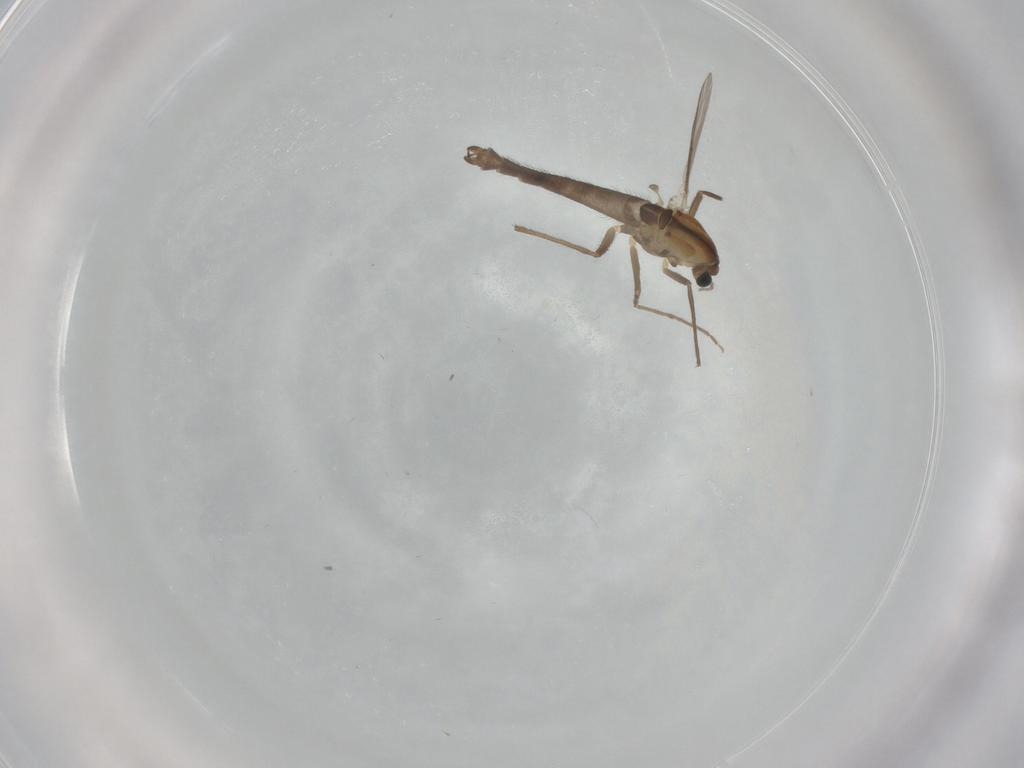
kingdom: Animalia
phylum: Arthropoda
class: Insecta
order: Diptera
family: Chironomidae
